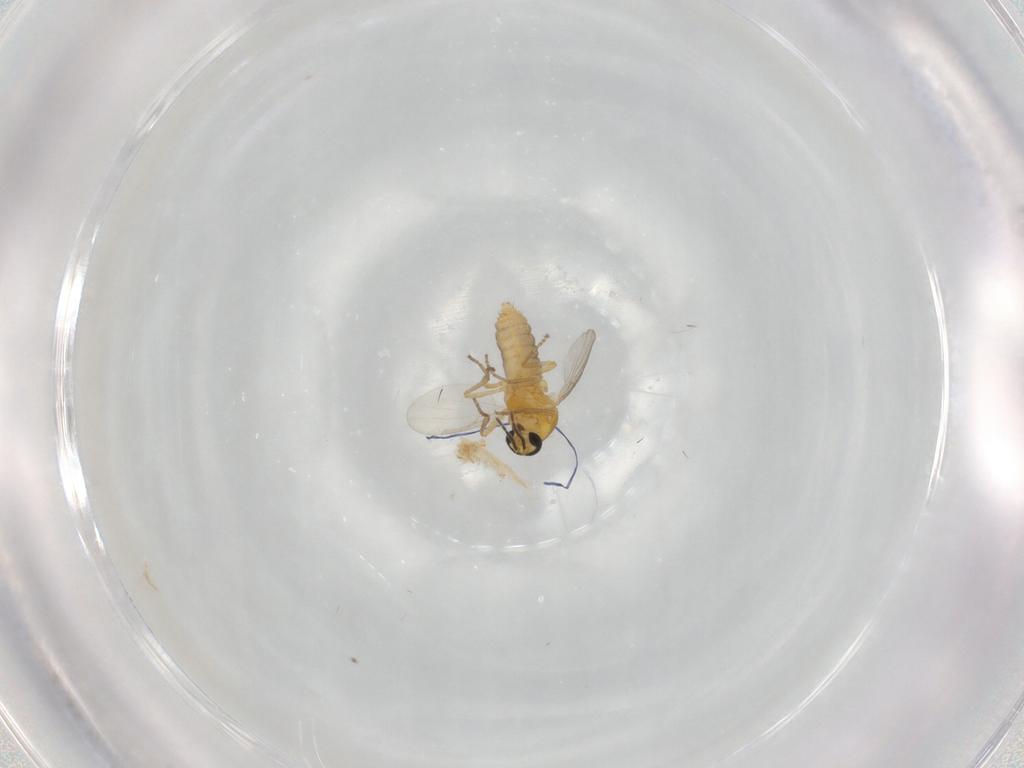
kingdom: Animalia
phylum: Arthropoda
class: Insecta
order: Diptera
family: Ceratopogonidae
